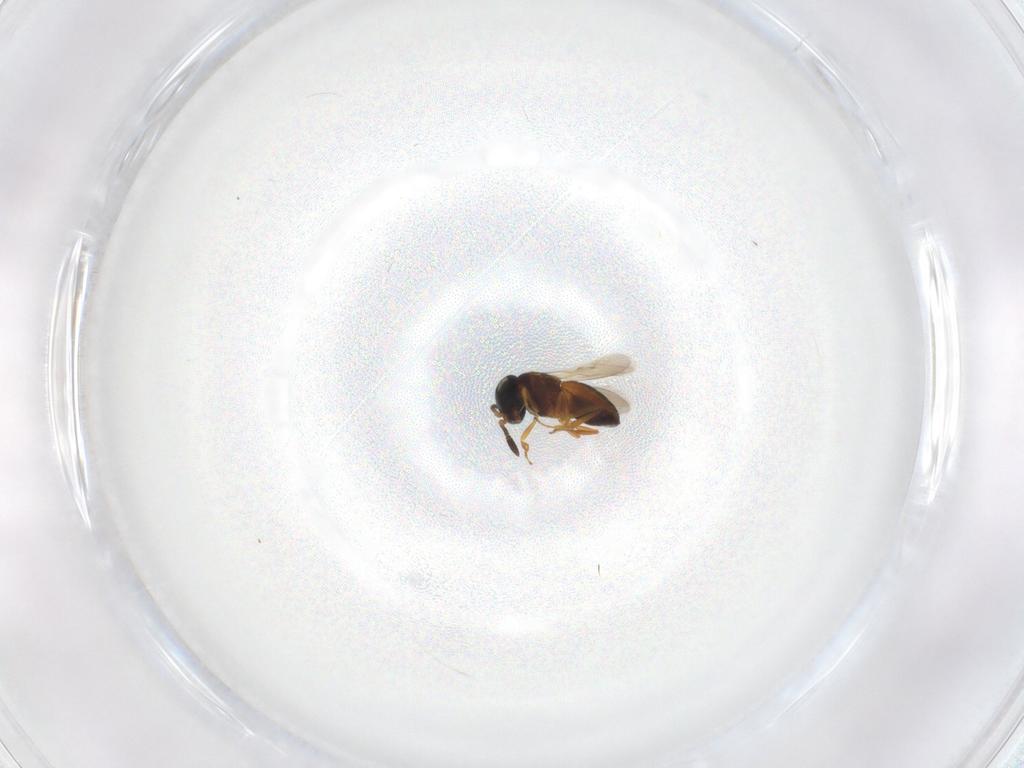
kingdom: Animalia
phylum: Arthropoda
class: Insecta
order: Hymenoptera
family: Scelionidae
